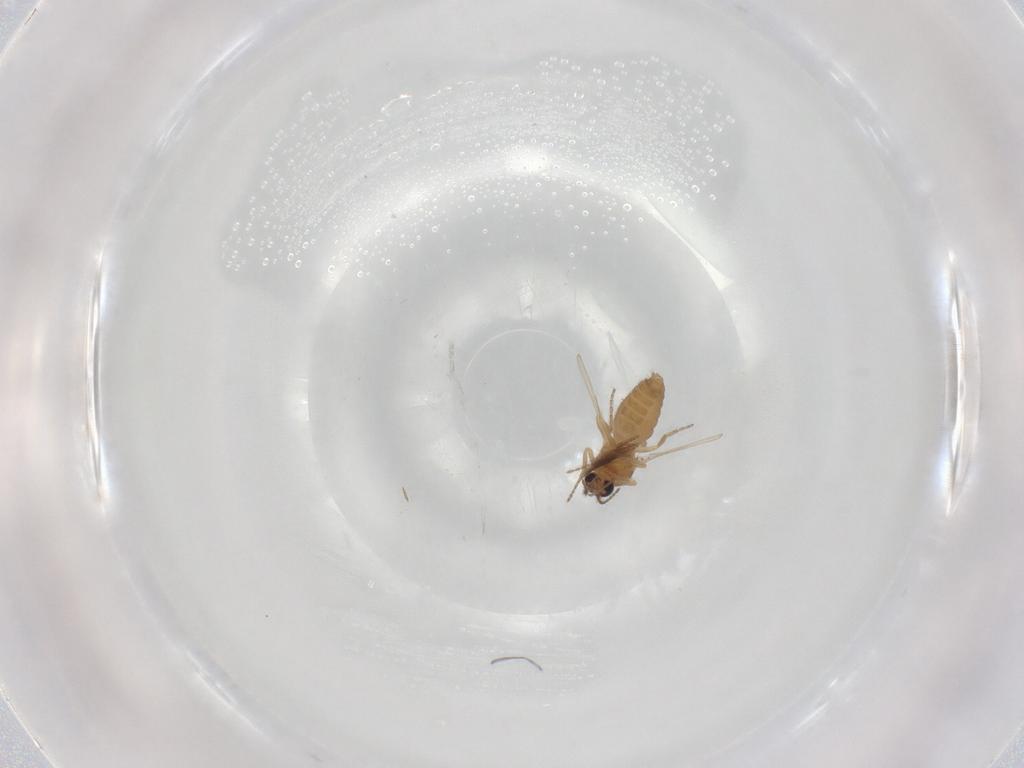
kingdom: Animalia
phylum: Arthropoda
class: Insecta
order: Diptera
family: Ceratopogonidae
